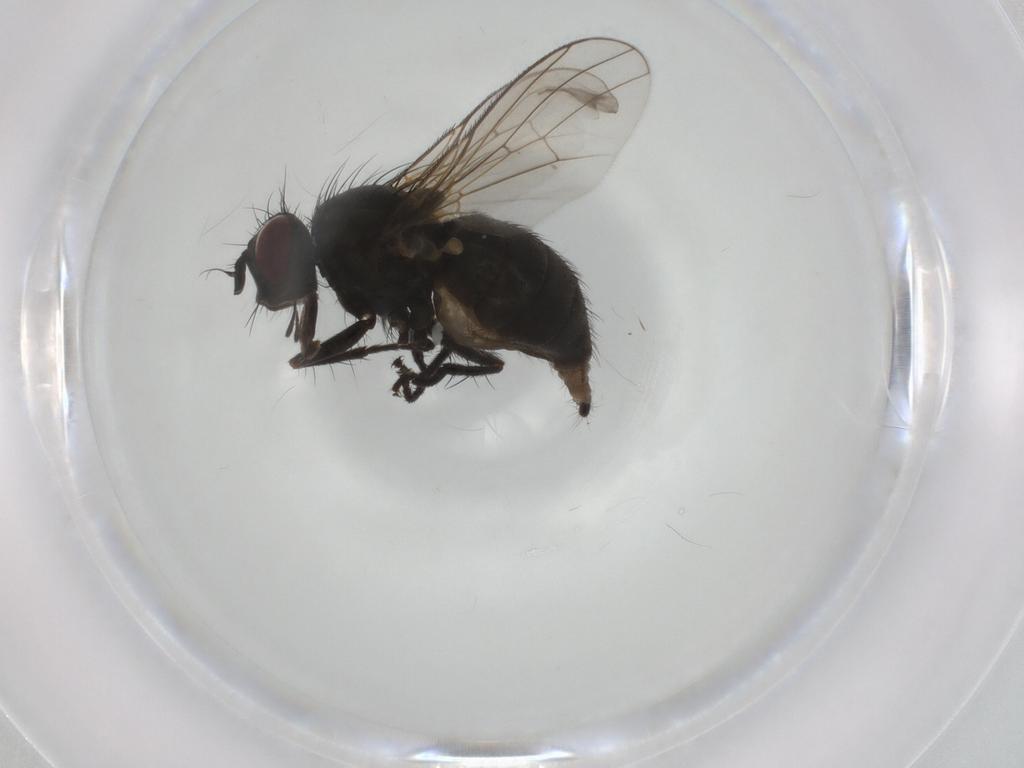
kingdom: Animalia
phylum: Arthropoda
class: Insecta
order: Diptera
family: Muscidae
